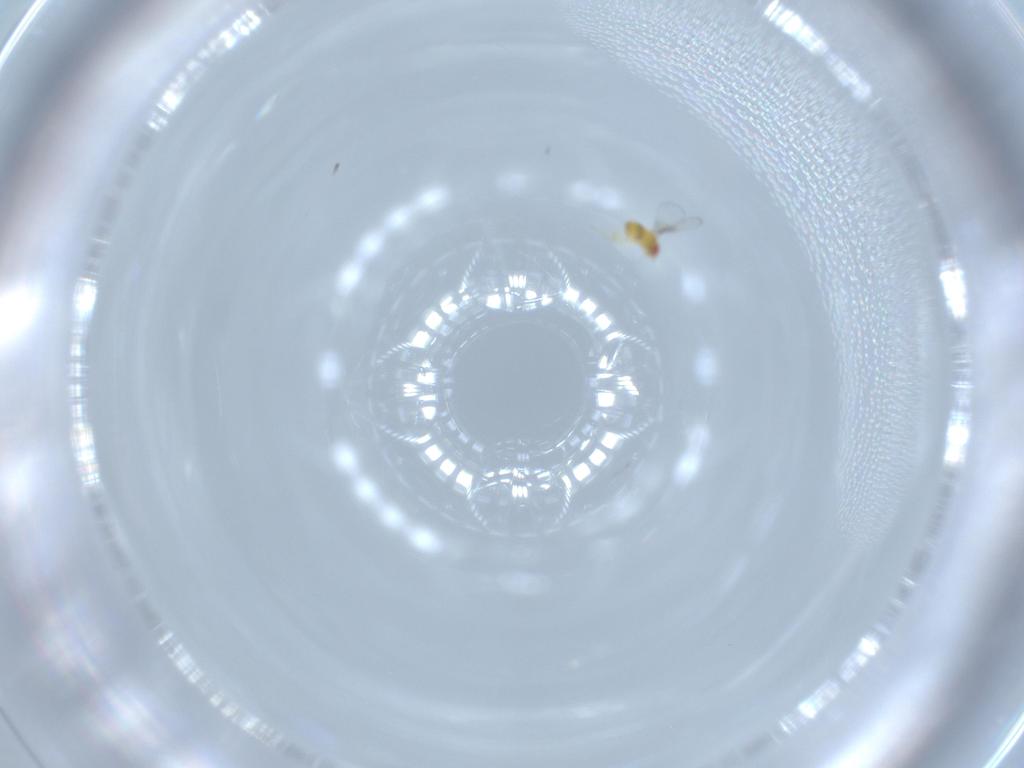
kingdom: Animalia
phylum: Arthropoda
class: Insecta
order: Hymenoptera
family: Trichogrammatidae
